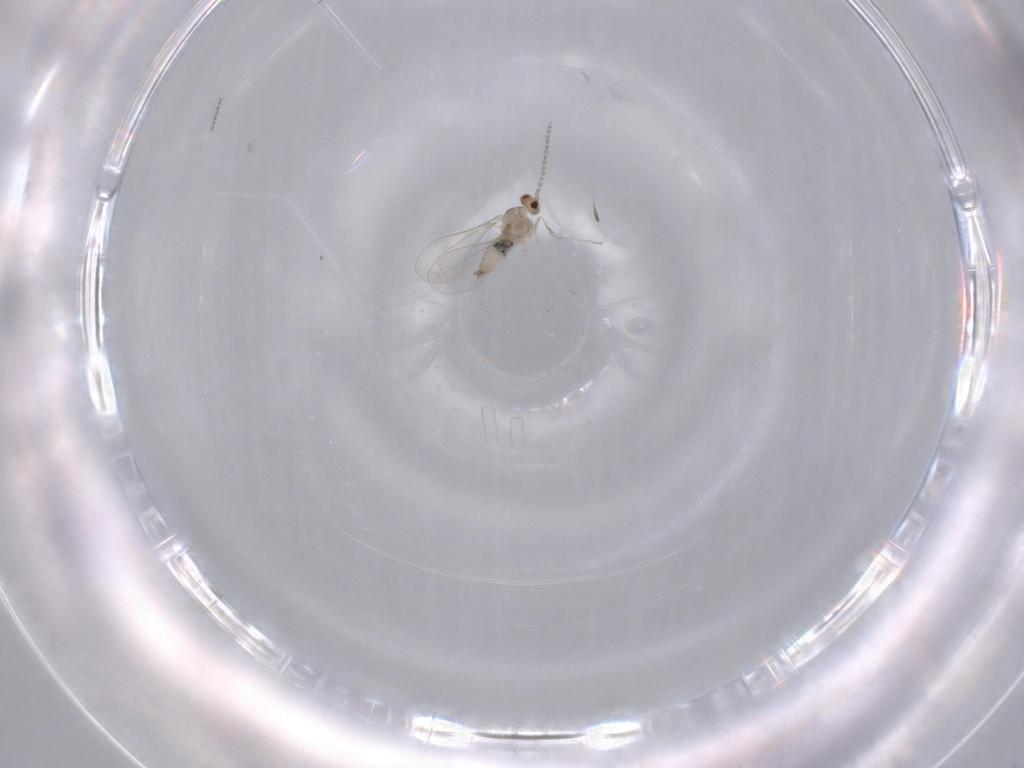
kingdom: Animalia
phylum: Arthropoda
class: Insecta
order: Diptera
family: Cecidomyiidae
